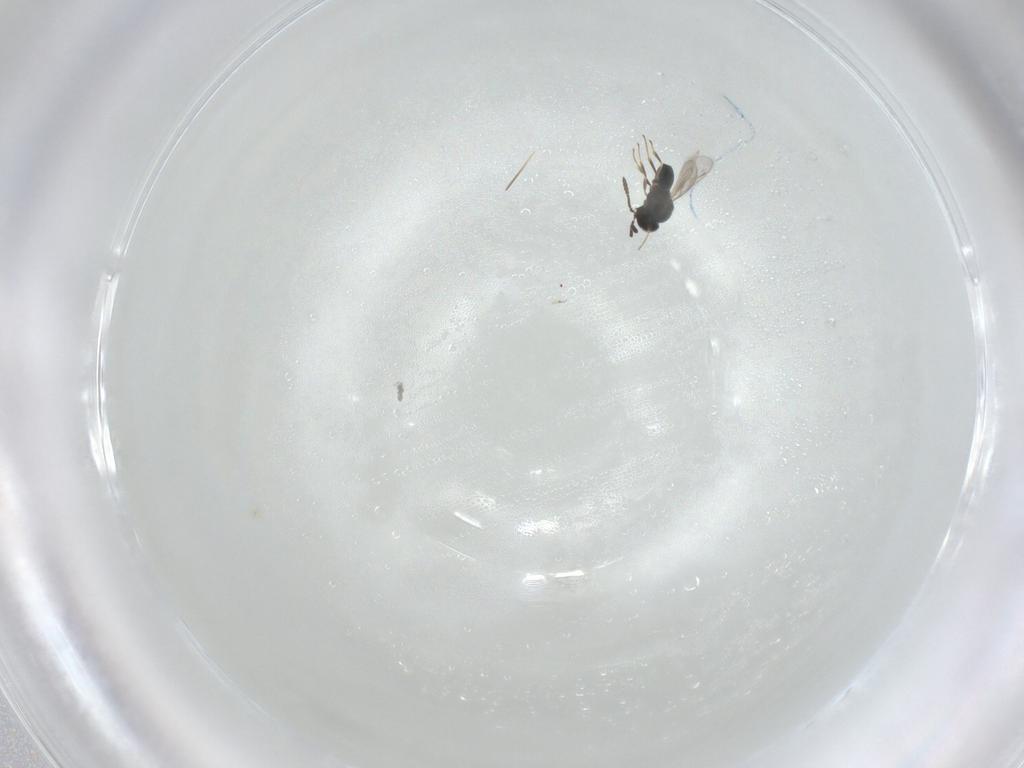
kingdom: Animalia
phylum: Arthropoda
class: Insecta
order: Hymenoptera
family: Scelionidae
